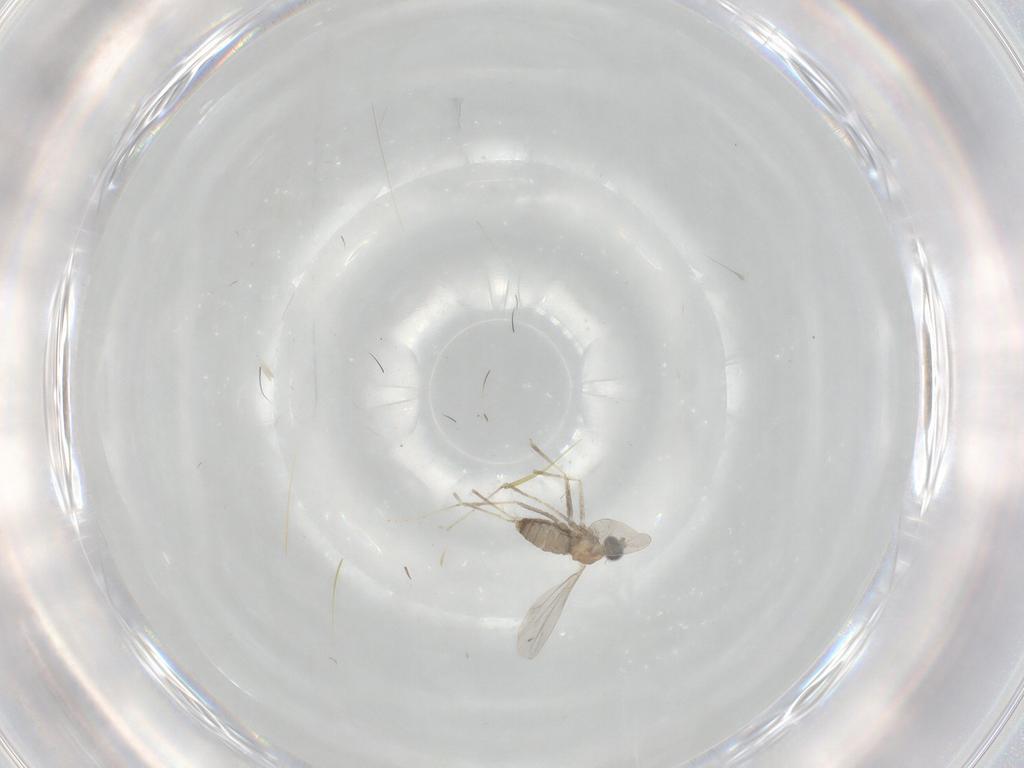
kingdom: Animalia
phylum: Arthropoda
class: Insecta
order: Diptera
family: Cecidomyiidae
